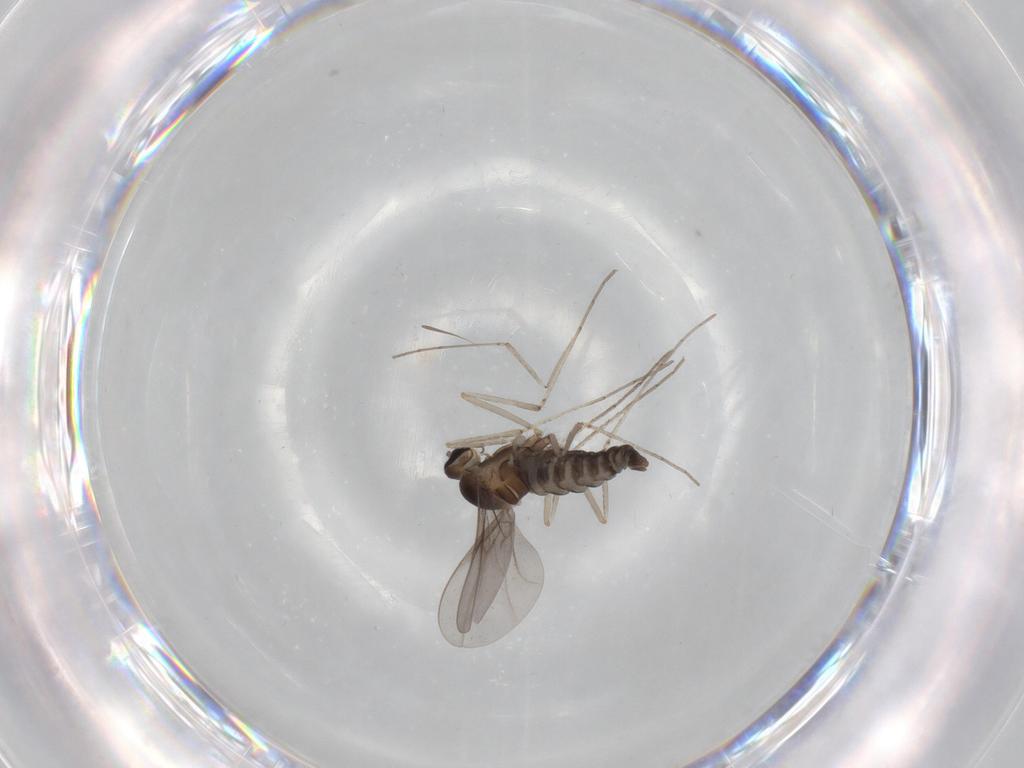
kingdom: Animalia
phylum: Arthropoda
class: Insecta
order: Diptera
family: Cecidomyiidae
